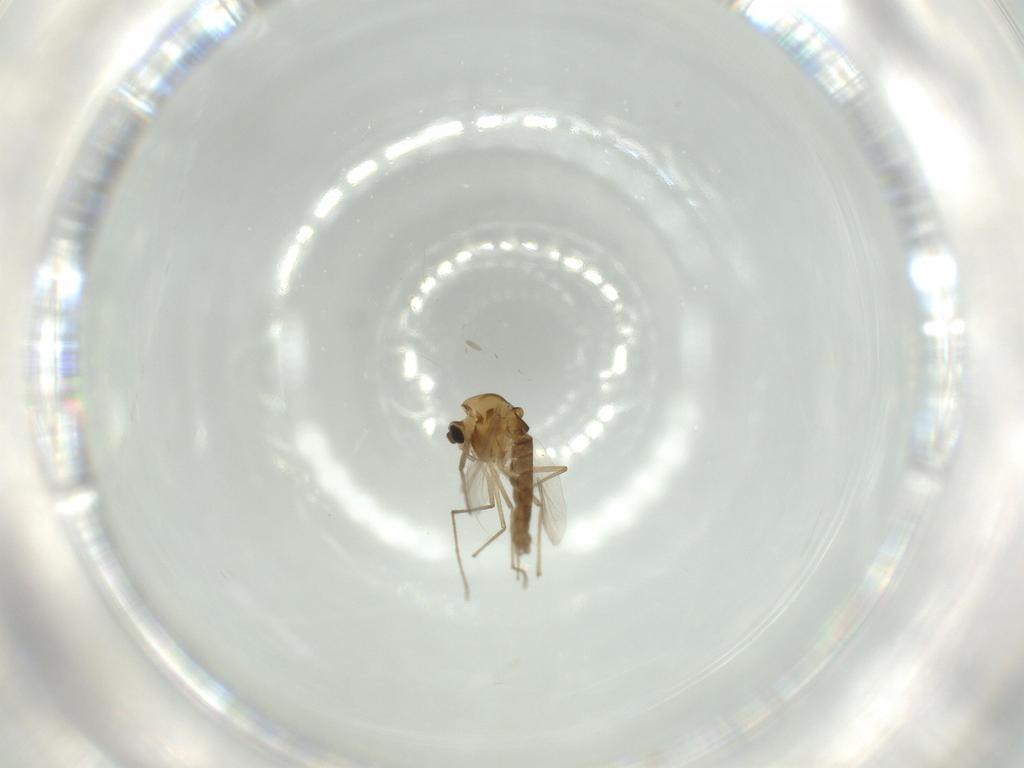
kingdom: Animalia
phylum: Arthropoda
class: Insecta
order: Diptera
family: Chironomidae
